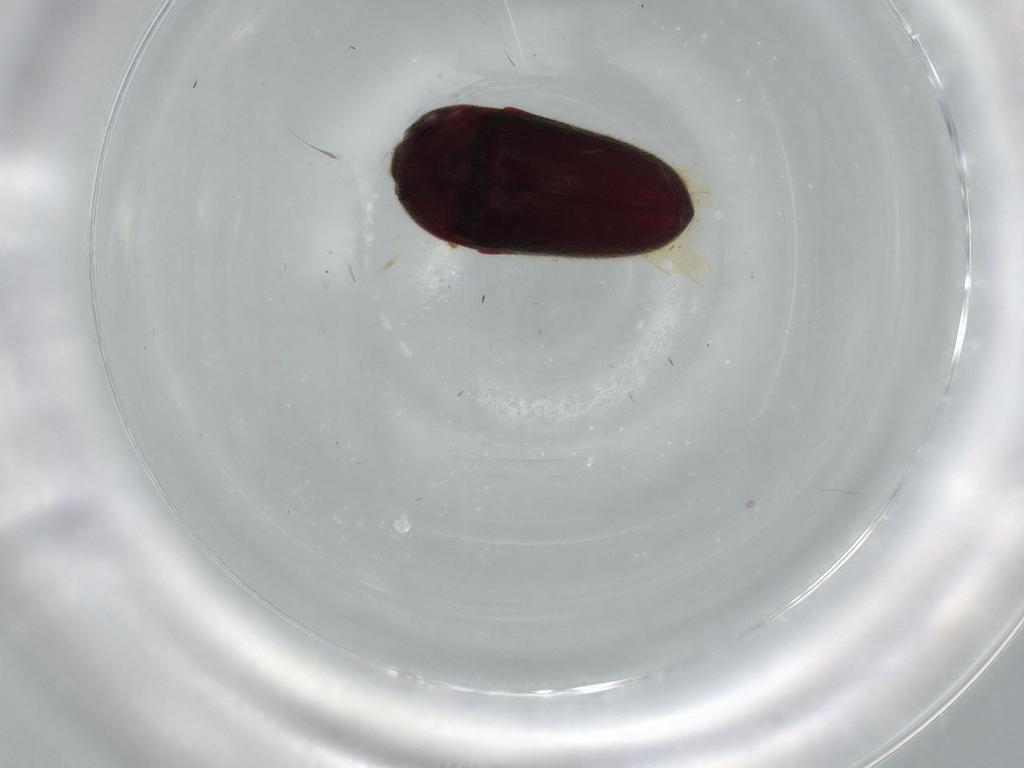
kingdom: Animalia
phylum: Arthropoda
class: Insecta
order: Coleoptera
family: Throscidae
